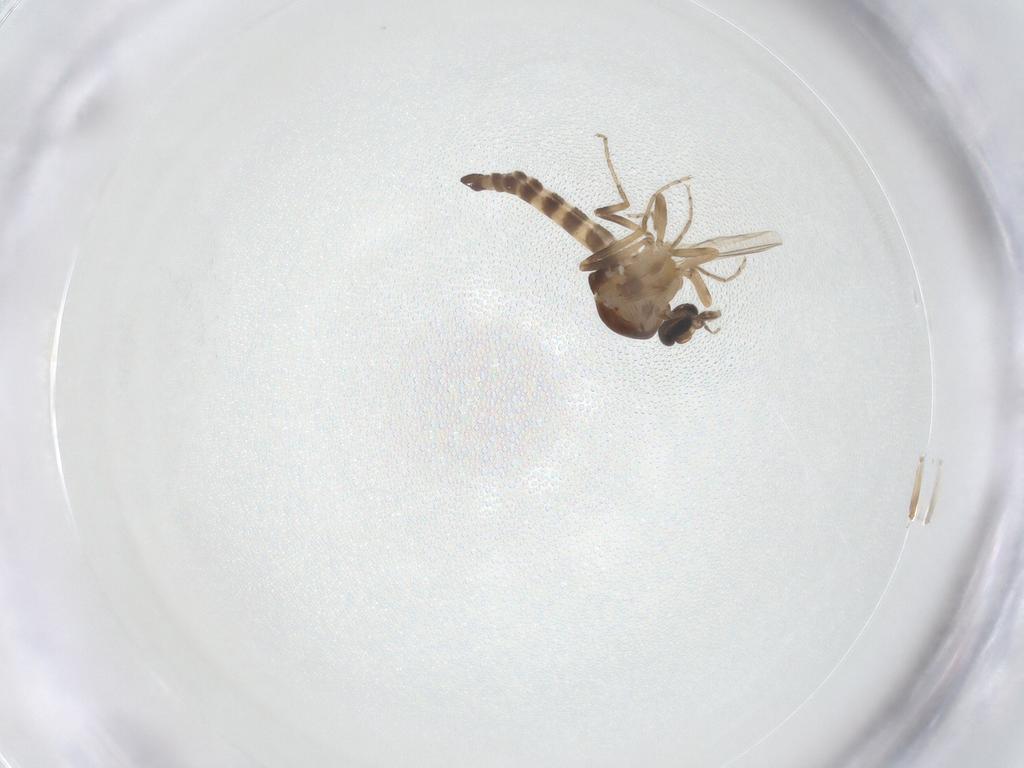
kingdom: Animalia
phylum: Arthropoda
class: Insecta
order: Diptera
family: Ceratopogonidae
